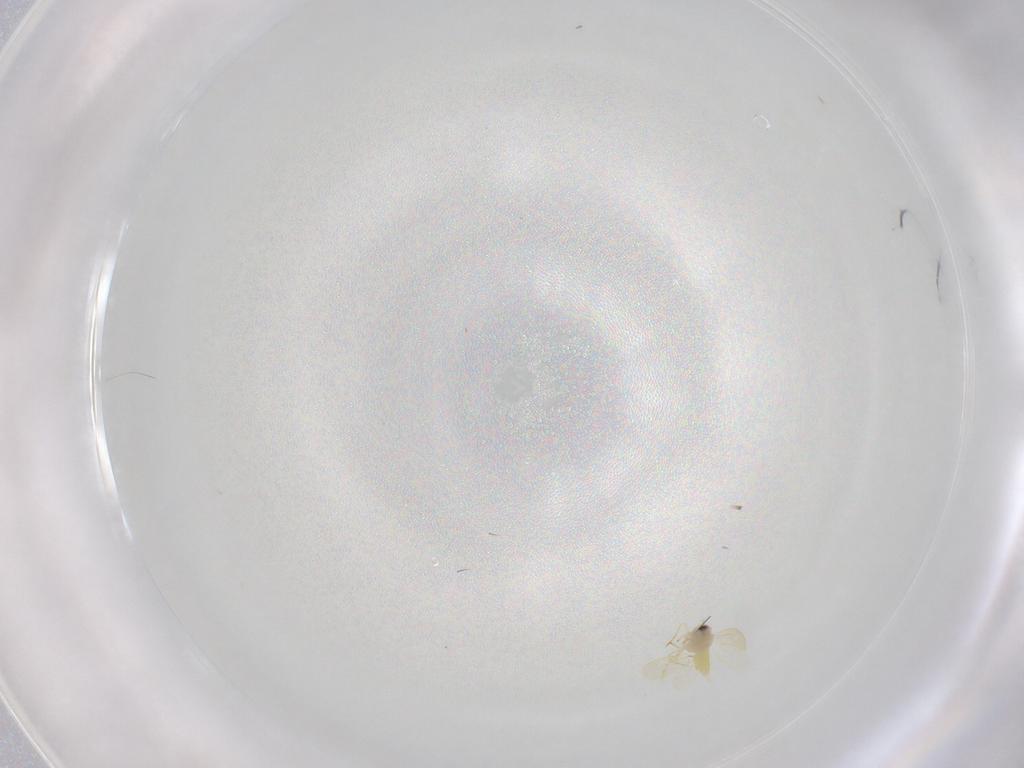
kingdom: Animalia
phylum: Arthropoda
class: Insecta
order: Hemiptera
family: Aleyrodidae
